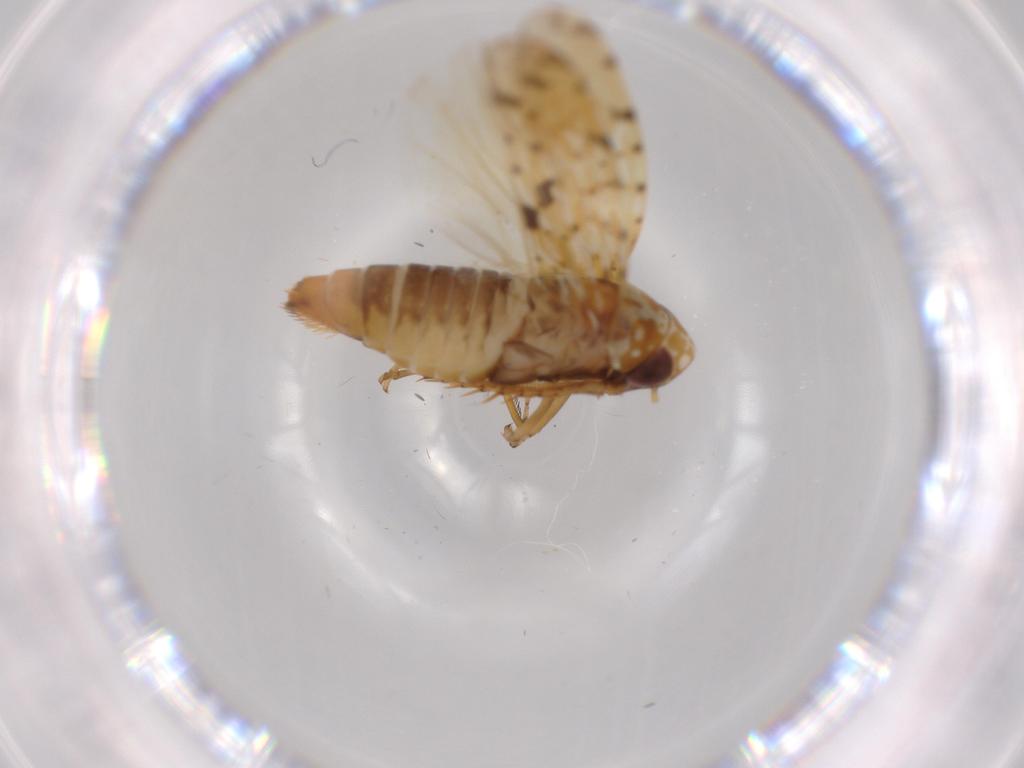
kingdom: Animalia
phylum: Arthropoda
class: Insecta
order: Hemiptera
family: Cicadellidae
